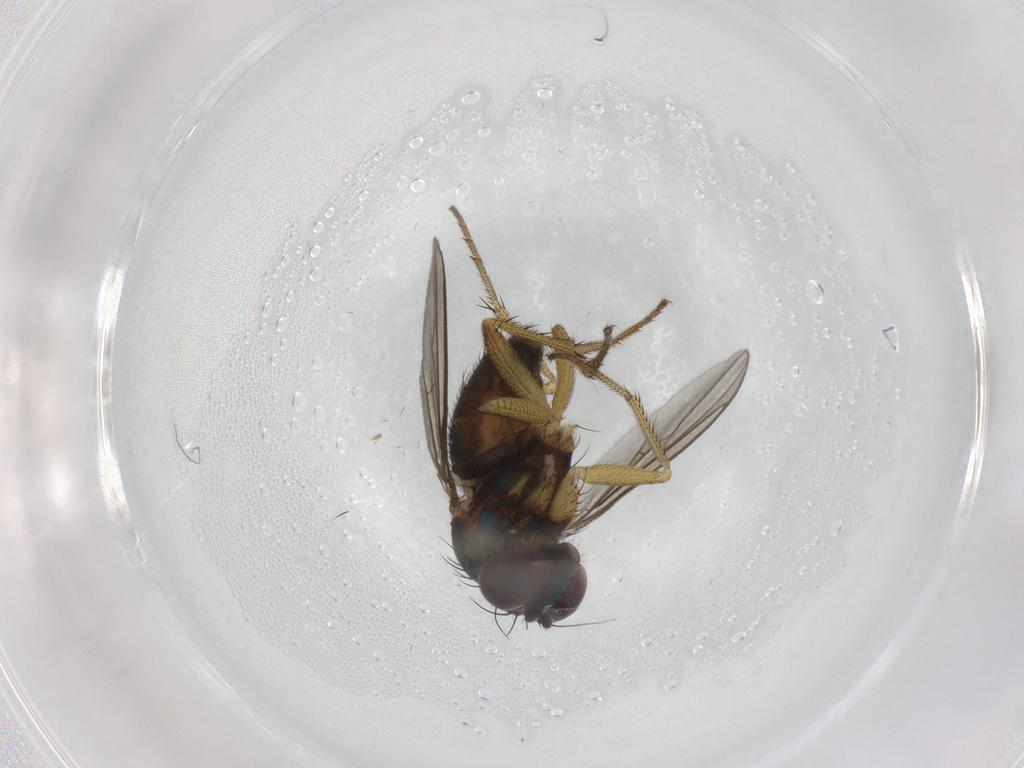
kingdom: Animalia
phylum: Arthropoda
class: Insecta
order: Diptera
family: Dolichopodidae
